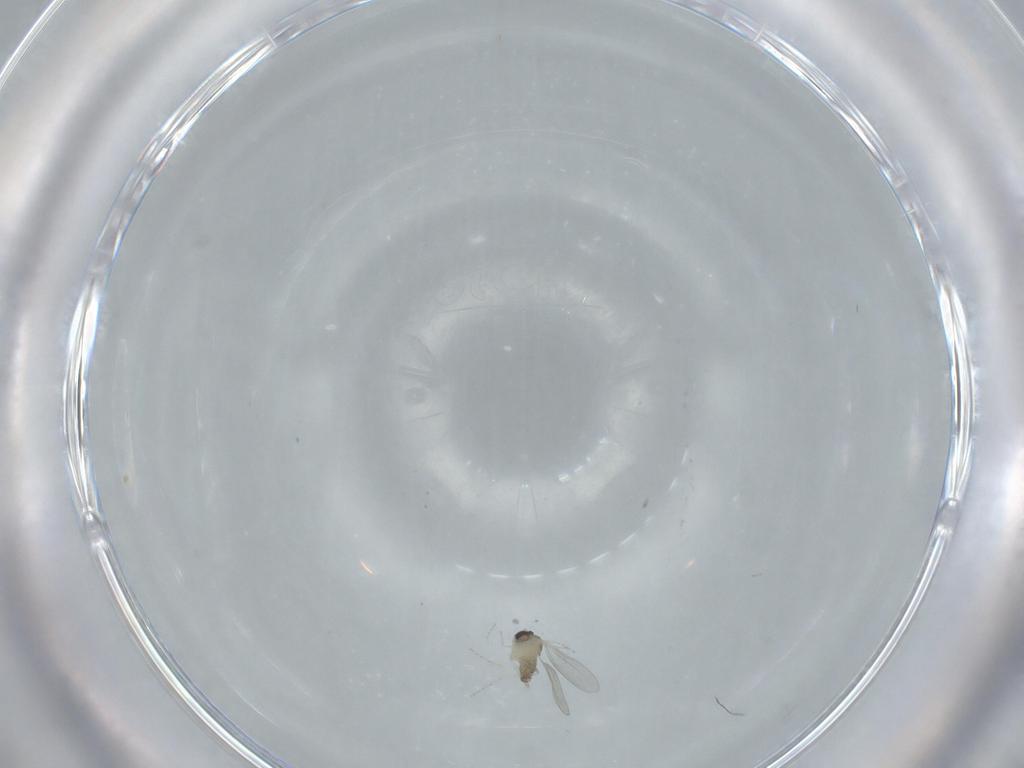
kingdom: Animalia
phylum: Arthropoda
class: Insecta
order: Diptera
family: Cecidomyiidae
